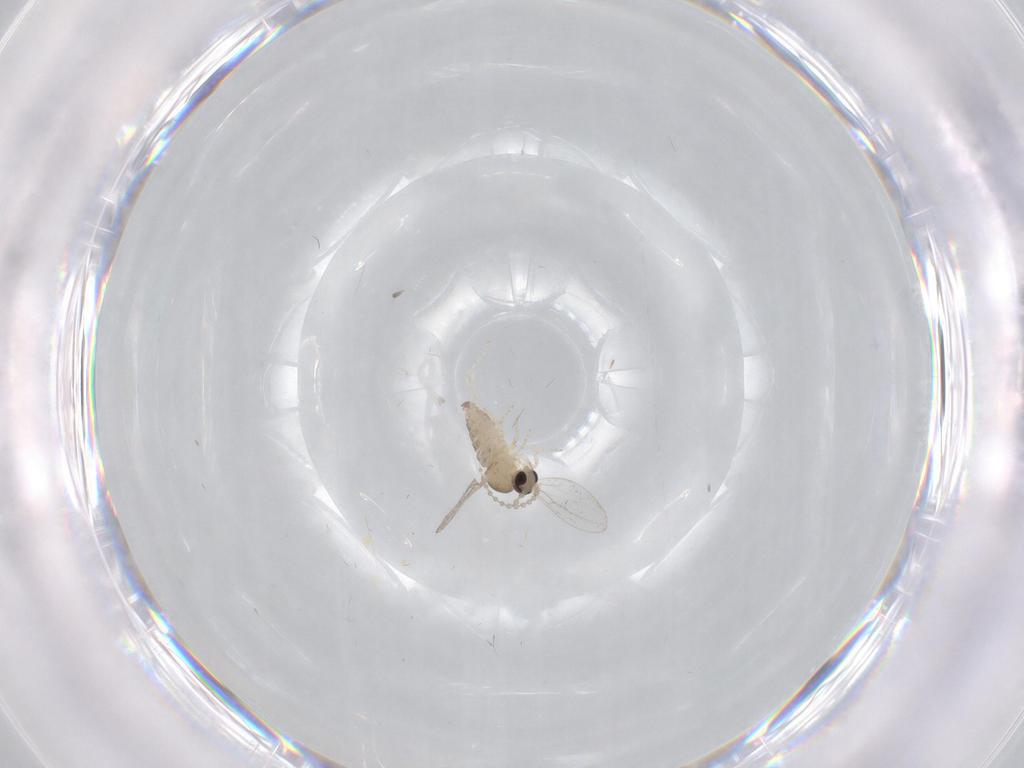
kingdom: Animalia
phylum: Arthropoda
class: Insecta
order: Diptera
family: Cecidomyiidae
